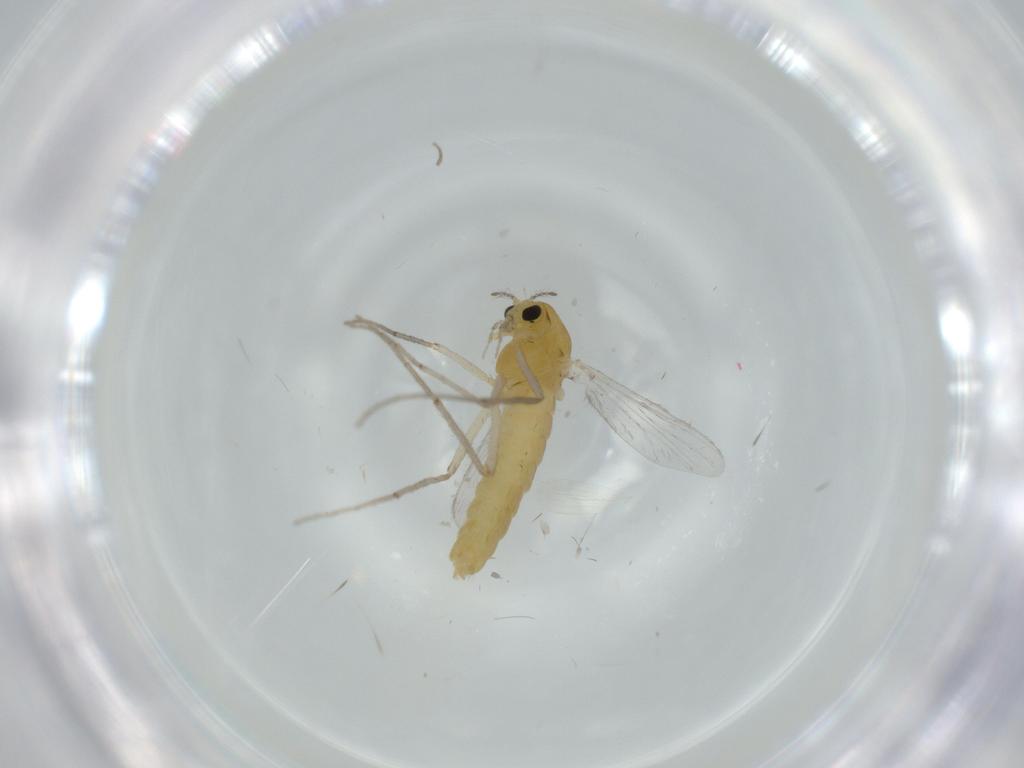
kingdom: Animalia
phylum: Arthropoda
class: Insecta
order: Diptera
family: Chironomidae
